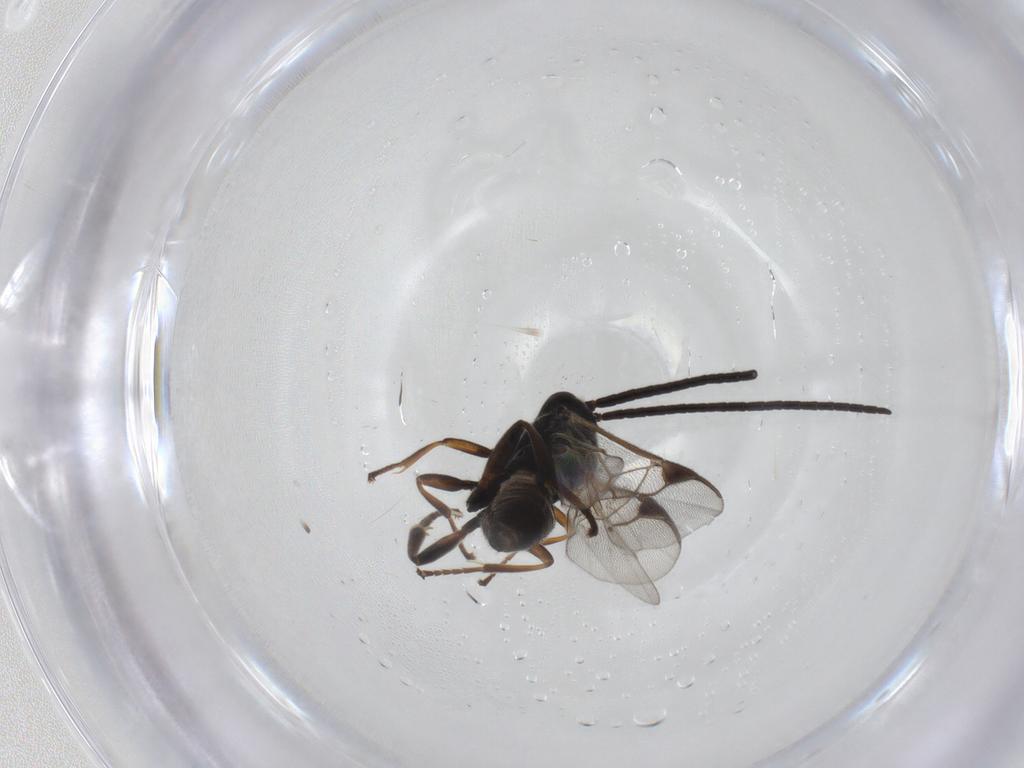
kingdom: Animalia
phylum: Arthropoda
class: Insecta
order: Hymenoptera
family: Braconidae
